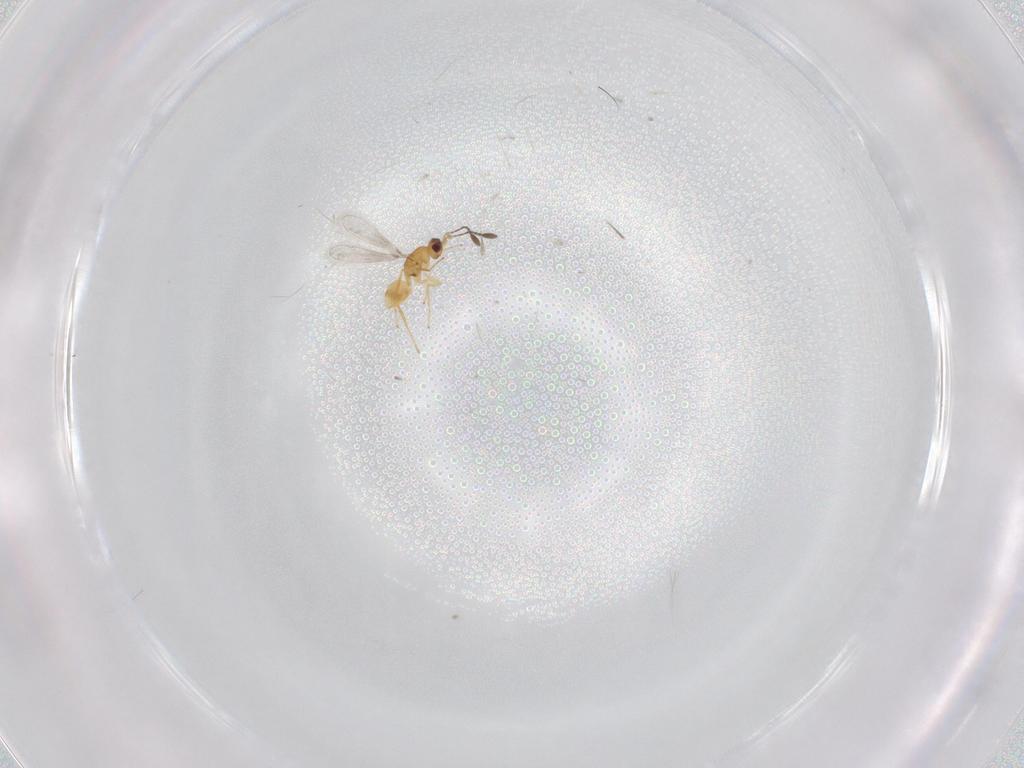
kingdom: Animalia
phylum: Arthropoda
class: Insecta
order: Hymenoptera
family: Mymaridae
